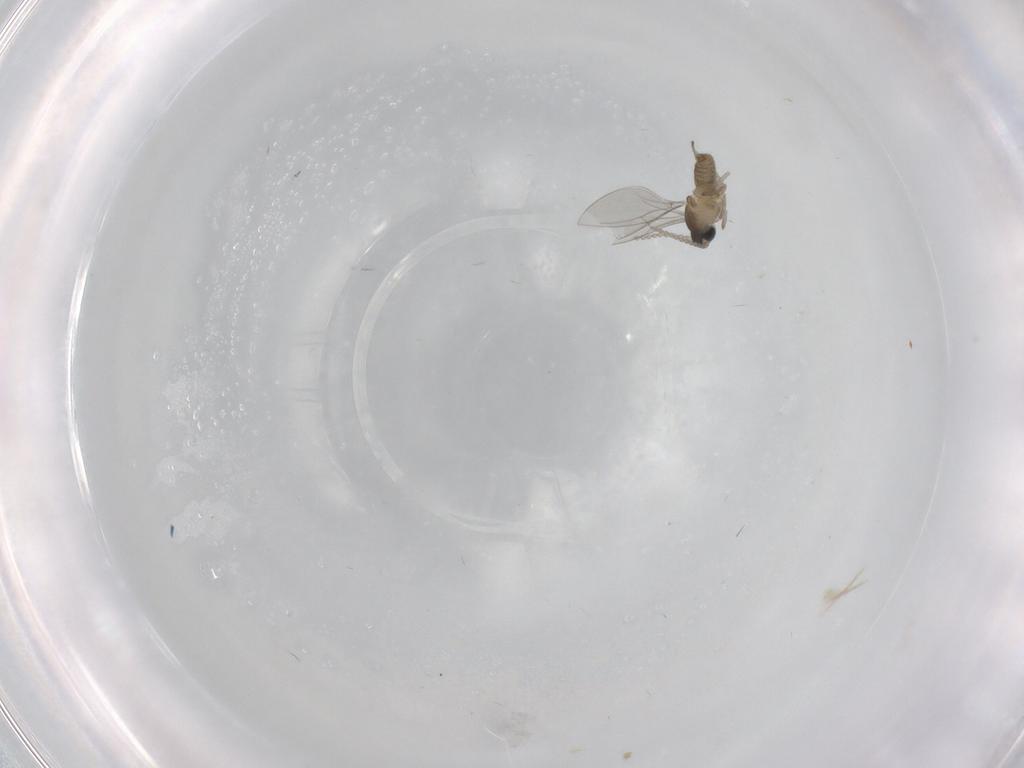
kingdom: Animalia
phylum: Arthropoda
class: Insecta
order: Diptera
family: Cecidomyiidae
